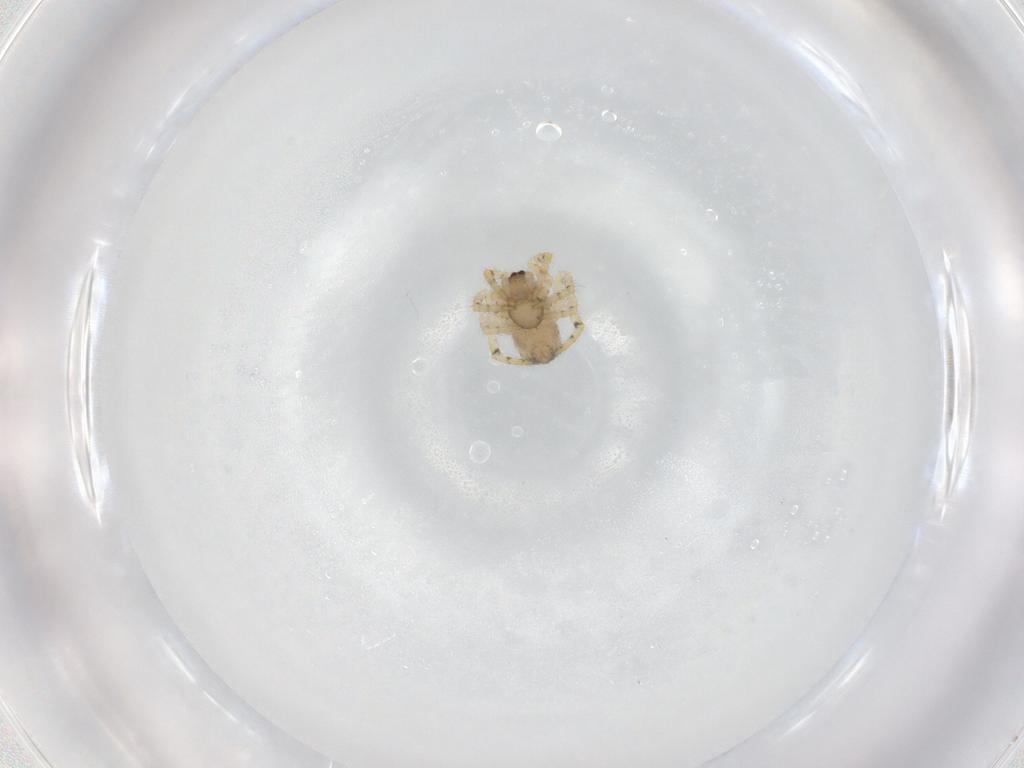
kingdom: Animalia
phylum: Arthropoda
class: Arachnida
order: Araneae
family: Theridiidae
